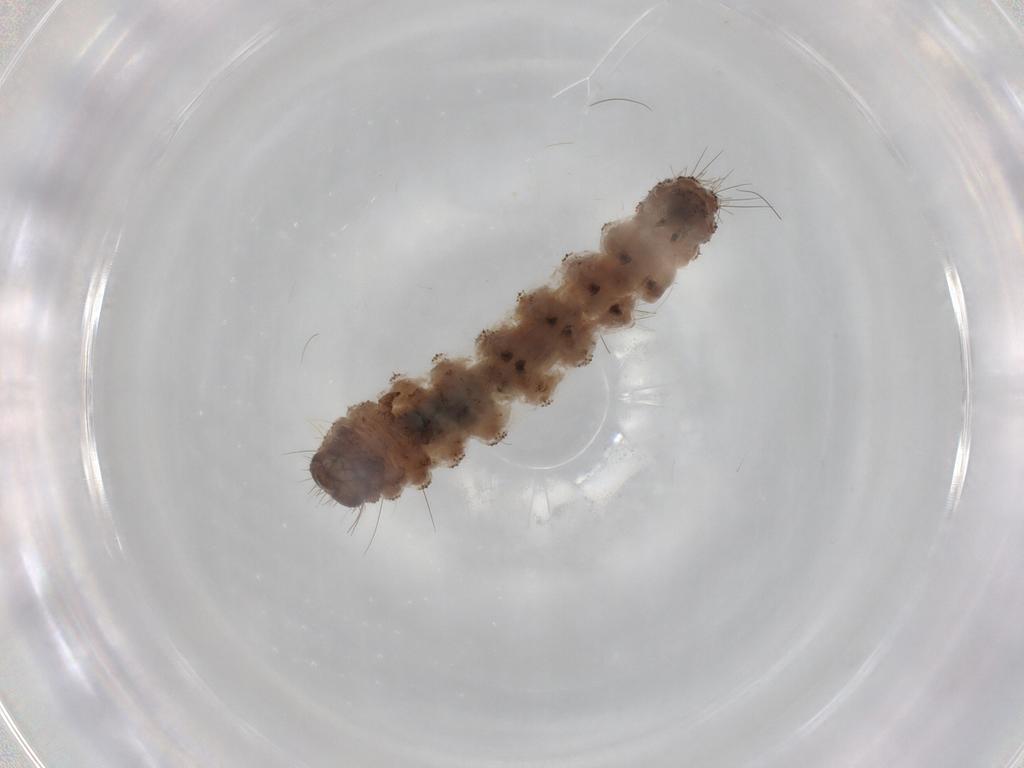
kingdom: Animalia
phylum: Arthropoda
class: Insecta
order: Lepidoptera
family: Erebidae
